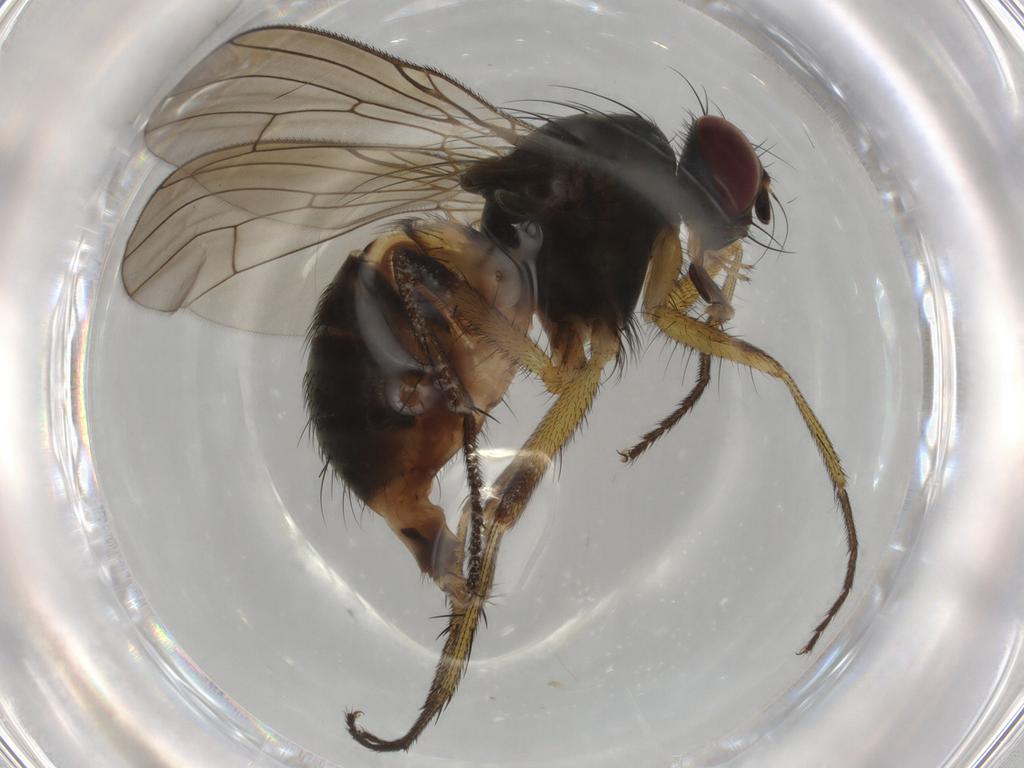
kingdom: Animalia
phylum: Arthropoda
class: Insecta
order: Diptera
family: Muscidae
